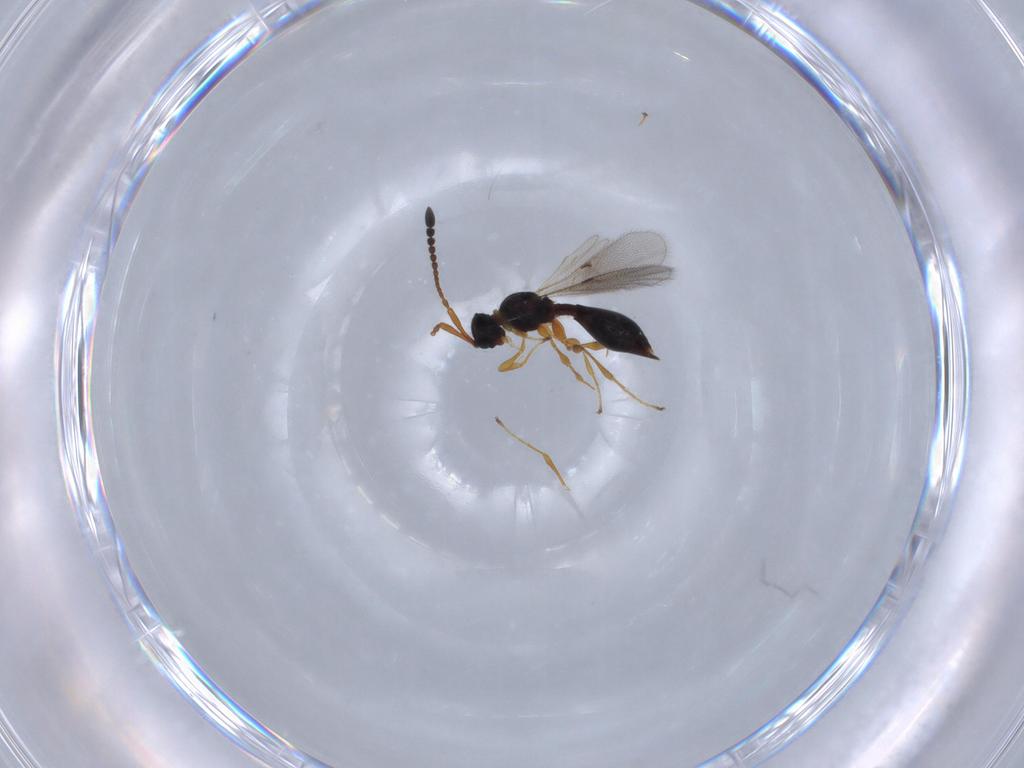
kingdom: Animalia
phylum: Arthropoda
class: Insecta
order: Hymenoptera
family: Diapriidae
